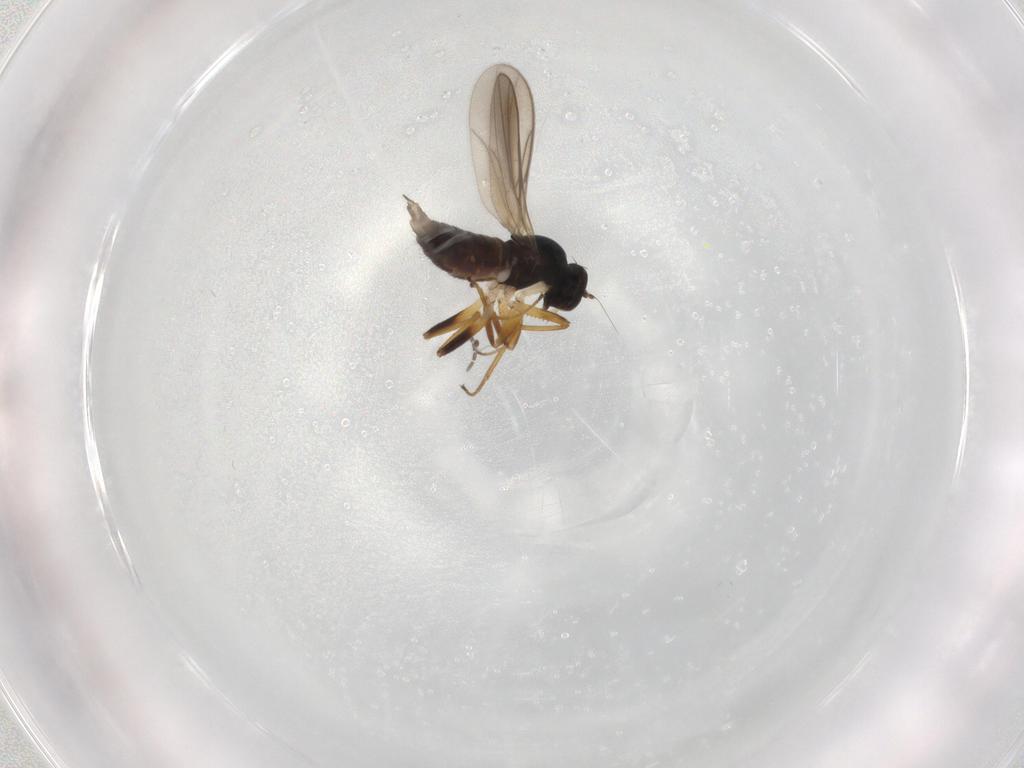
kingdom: Animalia
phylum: Arthropoda
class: Insecta
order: Diptera
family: Hybotidae
